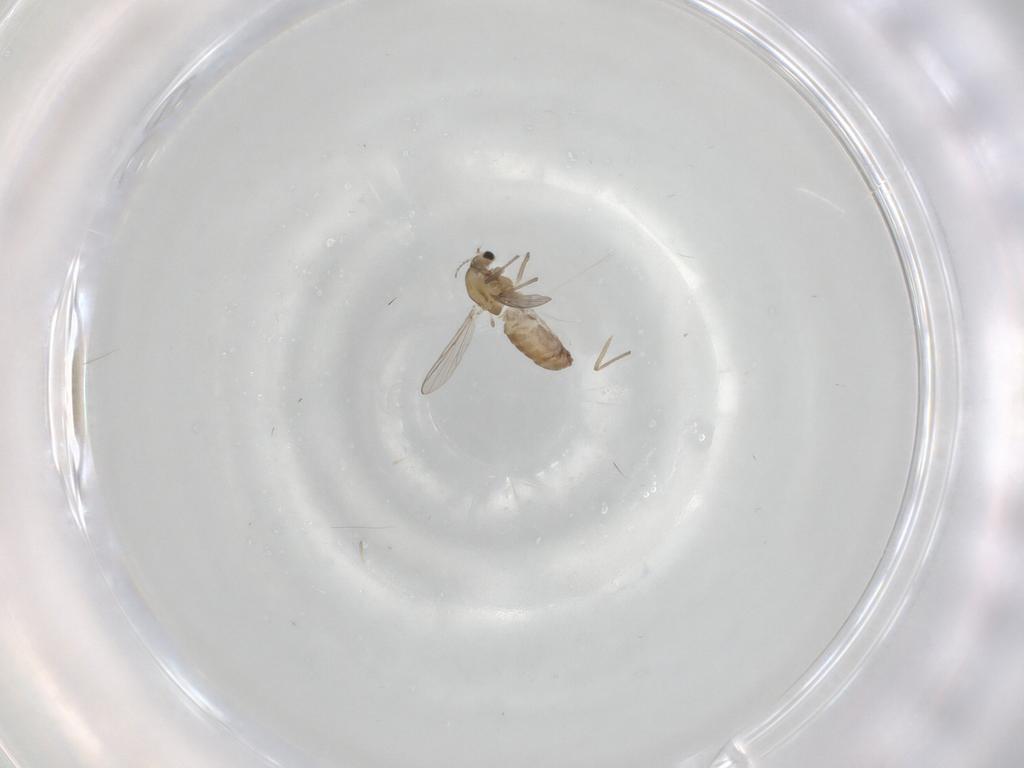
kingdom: Animalia
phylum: Arthropoda
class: Insecta
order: Diptera
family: Chironomidae
